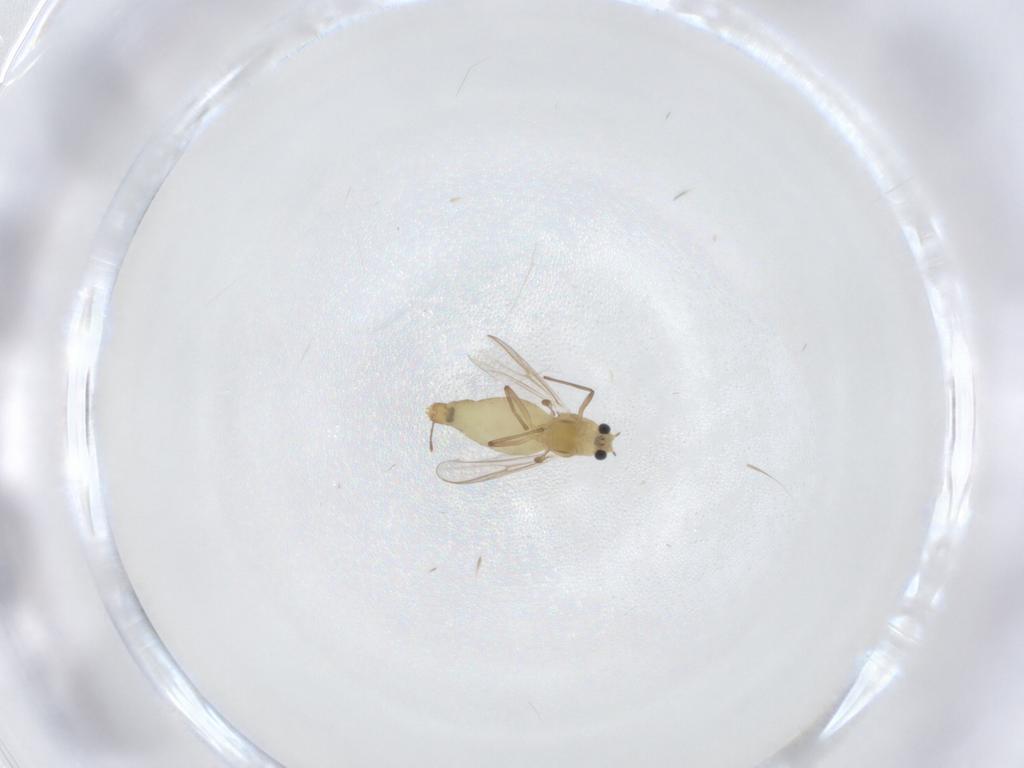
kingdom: Animalia
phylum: Arthropoda
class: Insecta
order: Diptera
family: Chironomidae
